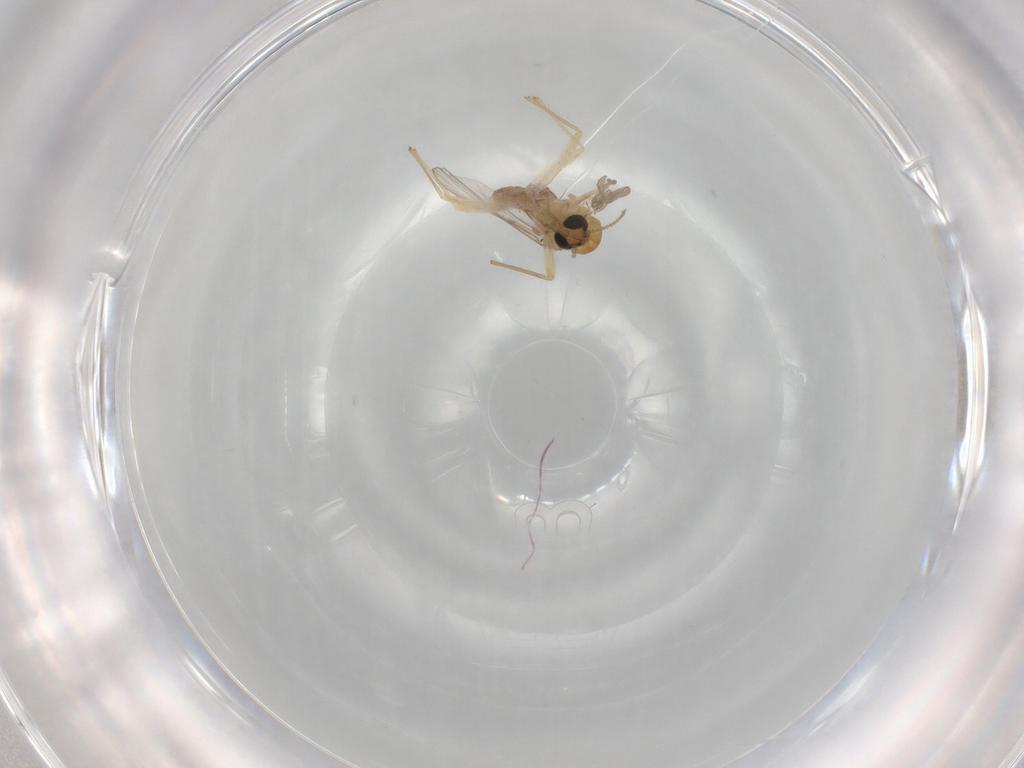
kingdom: Animalia
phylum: Arthropoda
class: Insecta
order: Diptera
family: Chironomidae
